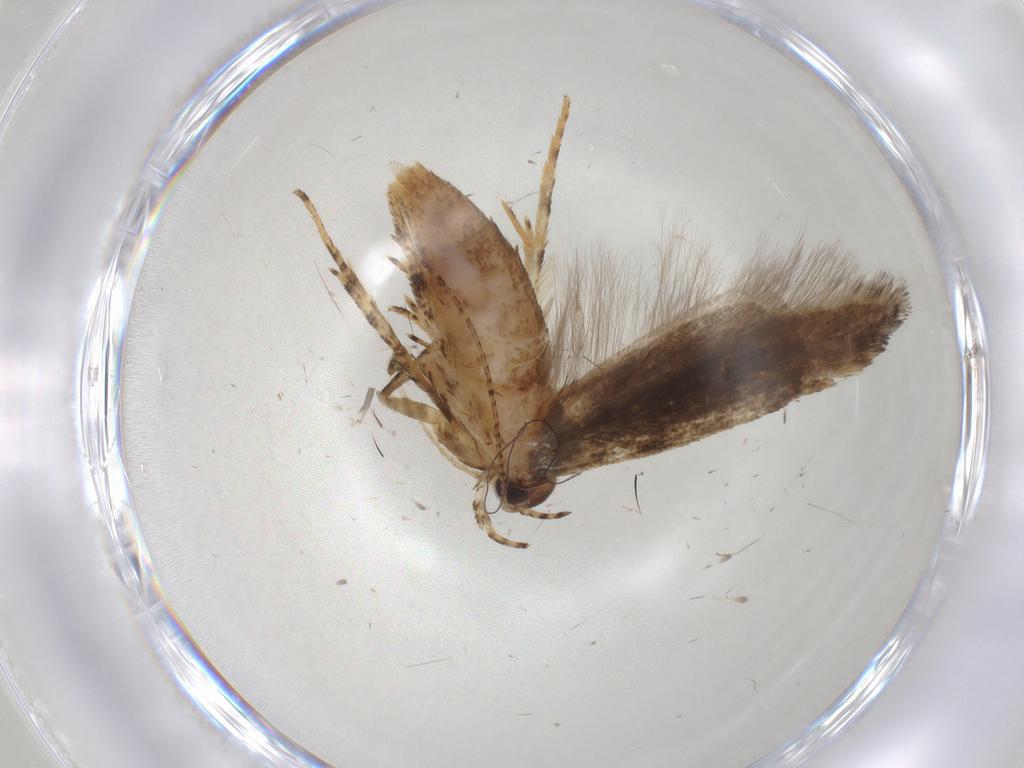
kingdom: Animalia
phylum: Arthropoda
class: Insecta
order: Lepidoptera
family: Gelechiidae
